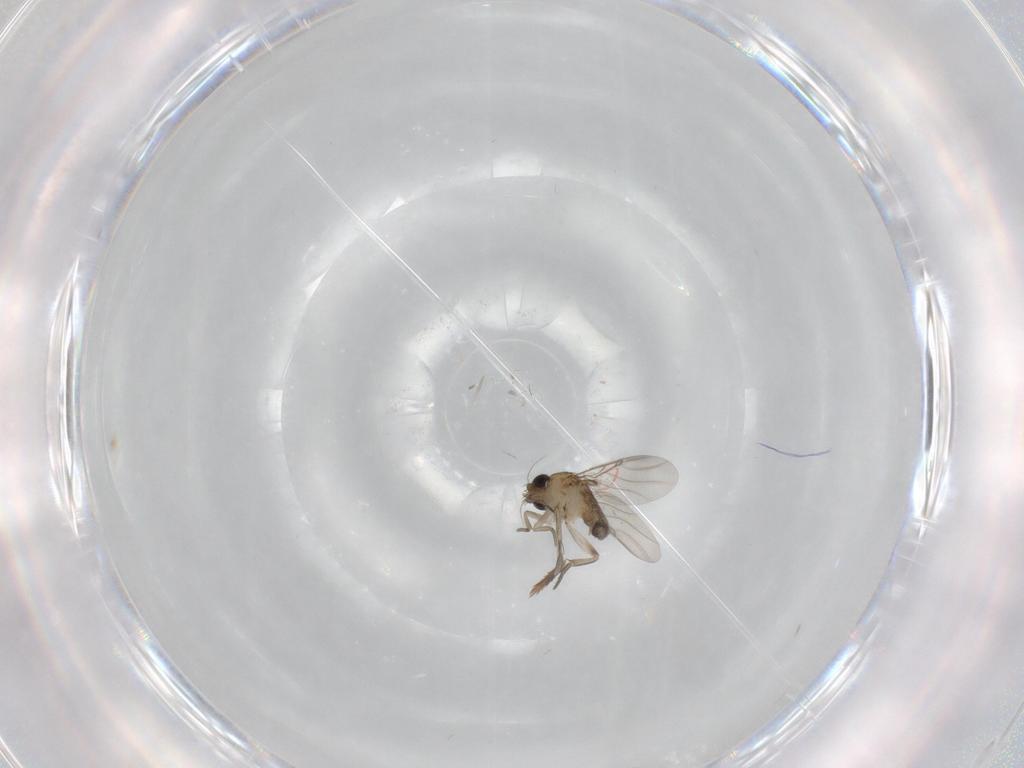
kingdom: Animalia
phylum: Arthropoda
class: Insecta
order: Diptera
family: Phoridae
